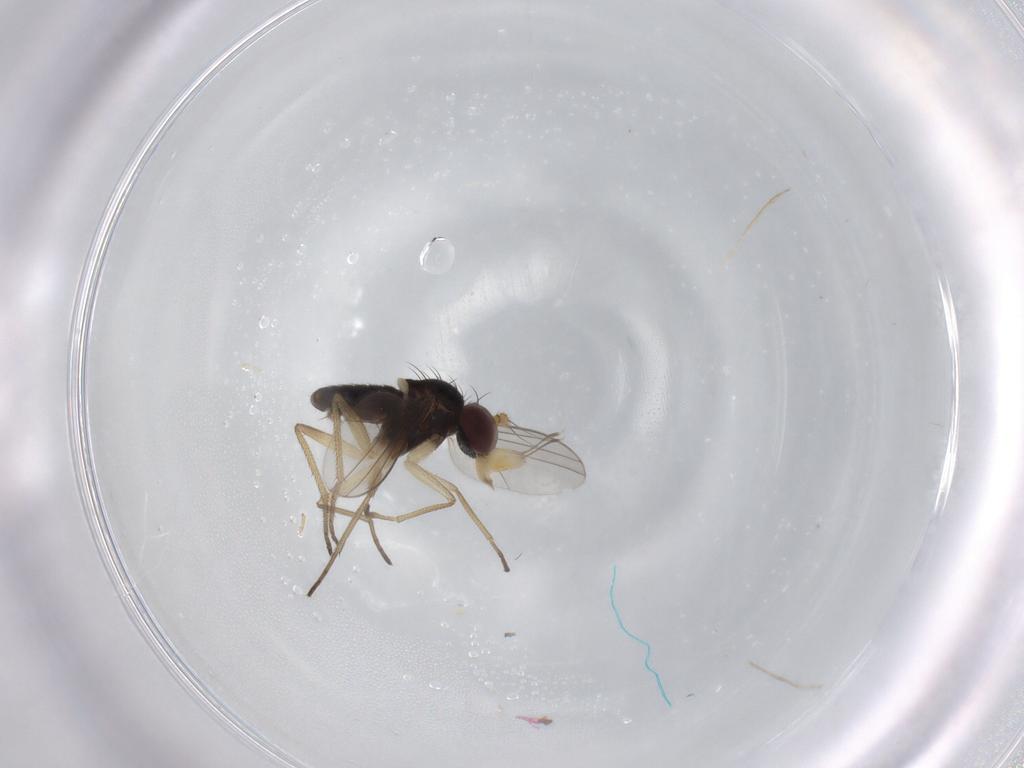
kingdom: Animalia
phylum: Arthropoda
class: Insecta
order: Diptera
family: Dolichopodidae
